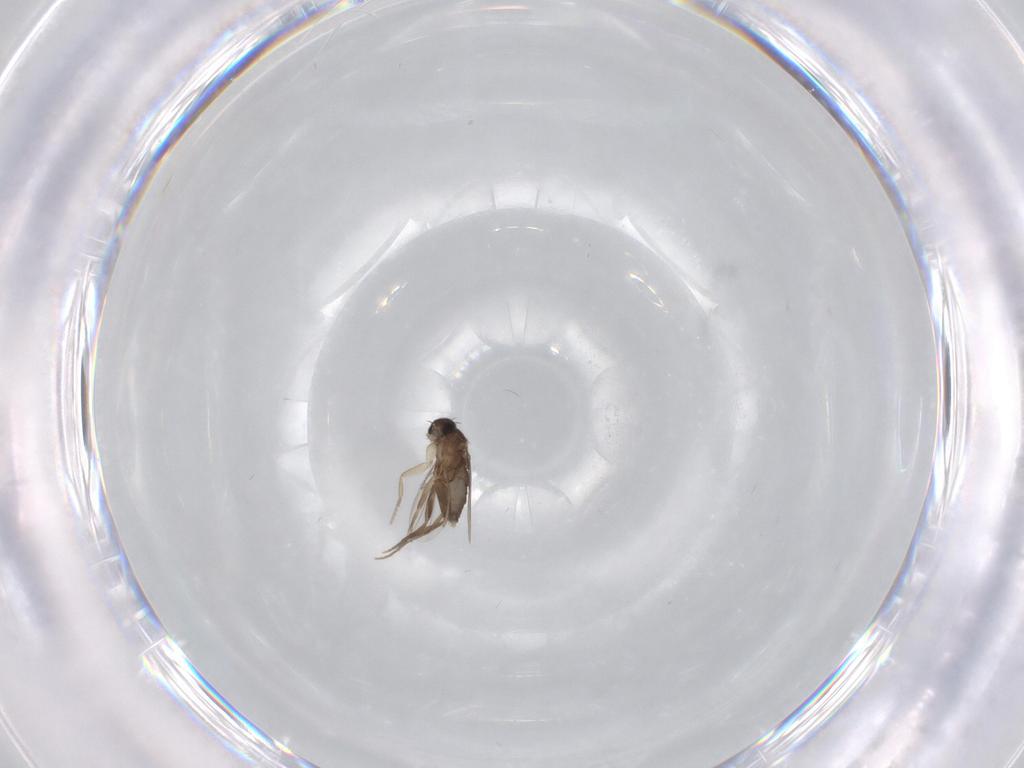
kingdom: Animalia
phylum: Arthropoda
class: Insecta
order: Diptera
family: Phoridae
